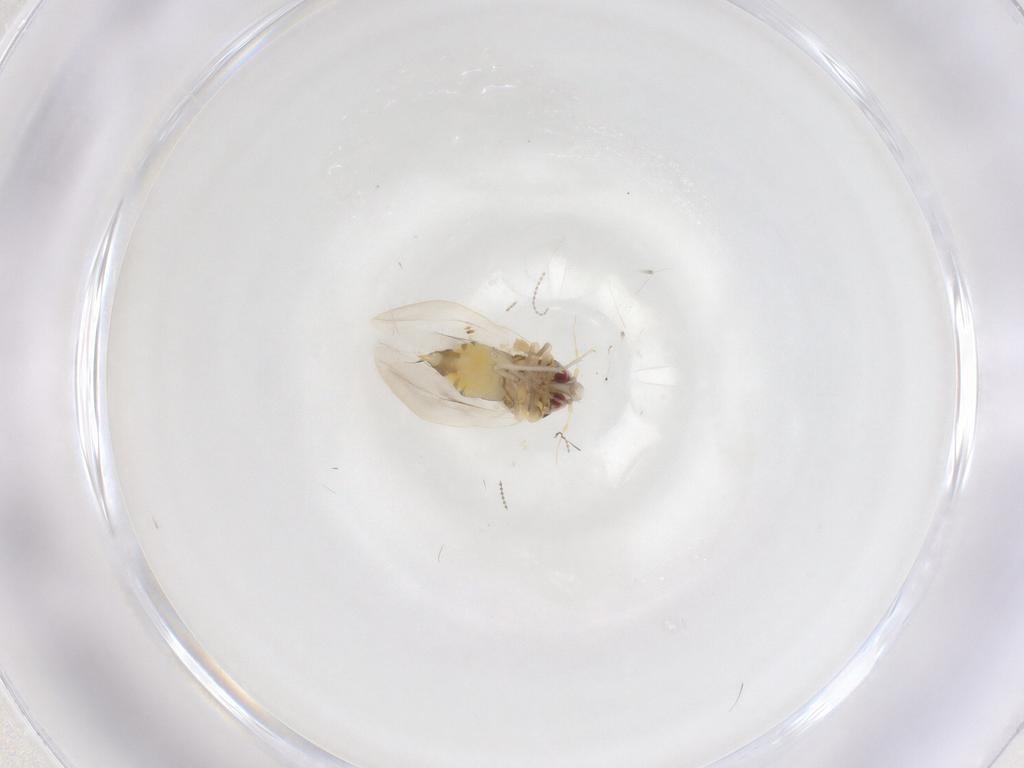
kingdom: Animalia
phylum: Arthropoda
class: Insecta
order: Hemiptera
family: Aleyrodidae
